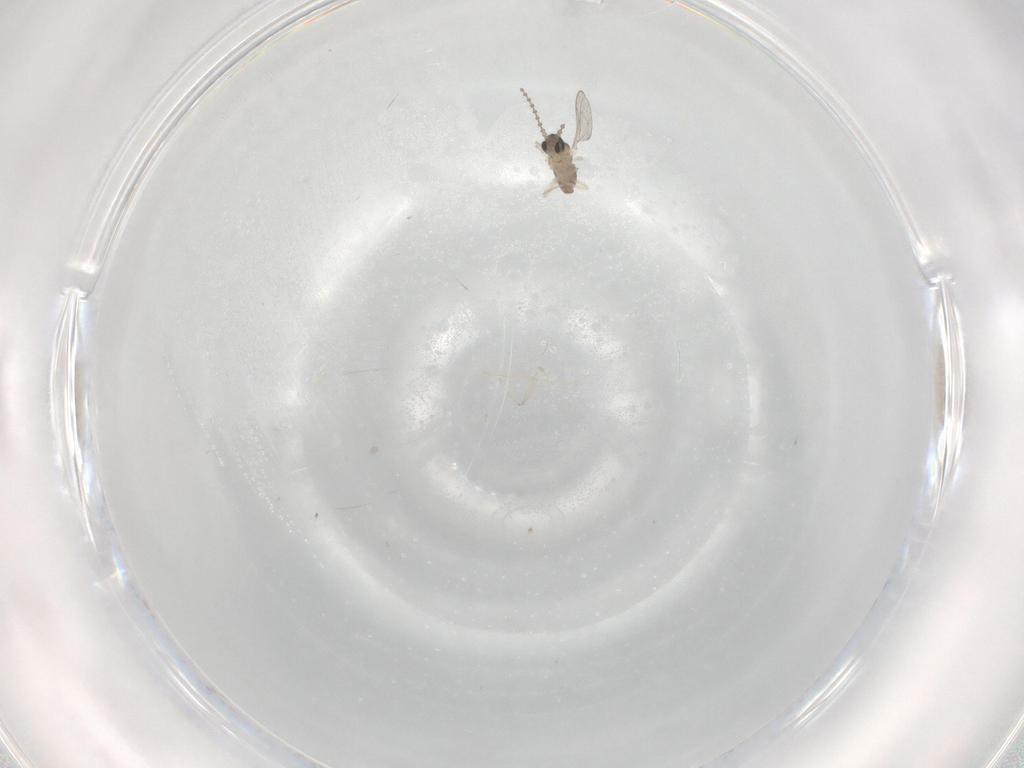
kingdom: Animalia
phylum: Arthropoda
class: Insecta
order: Diptera
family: Cecidomyiidae
